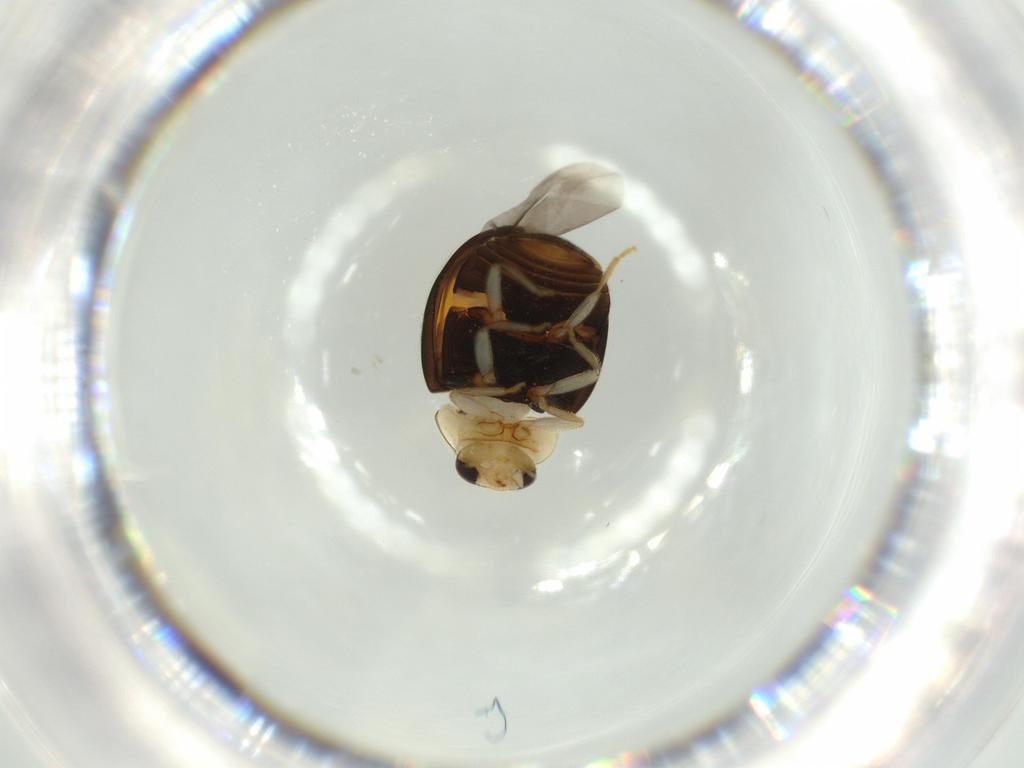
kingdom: Animalia
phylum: Arthropoda
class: Insecta
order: Coleoptera
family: Coccinellidae
